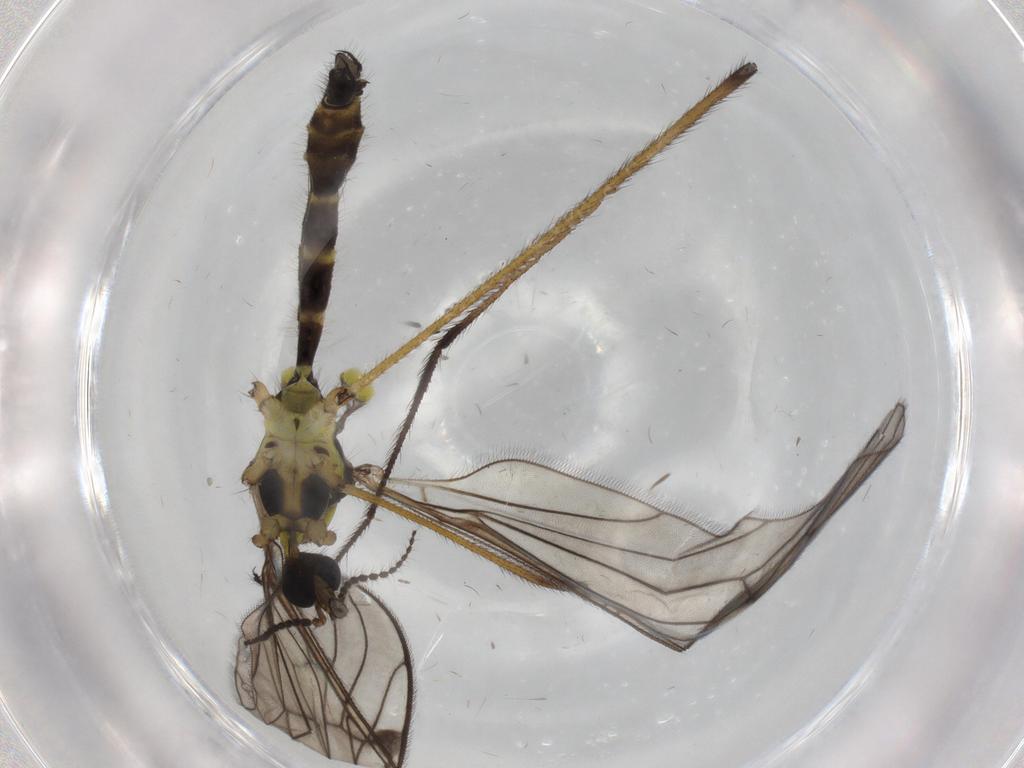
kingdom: Animalia
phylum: Arthropoda
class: Insecta
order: Diptera
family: Limoniidae
